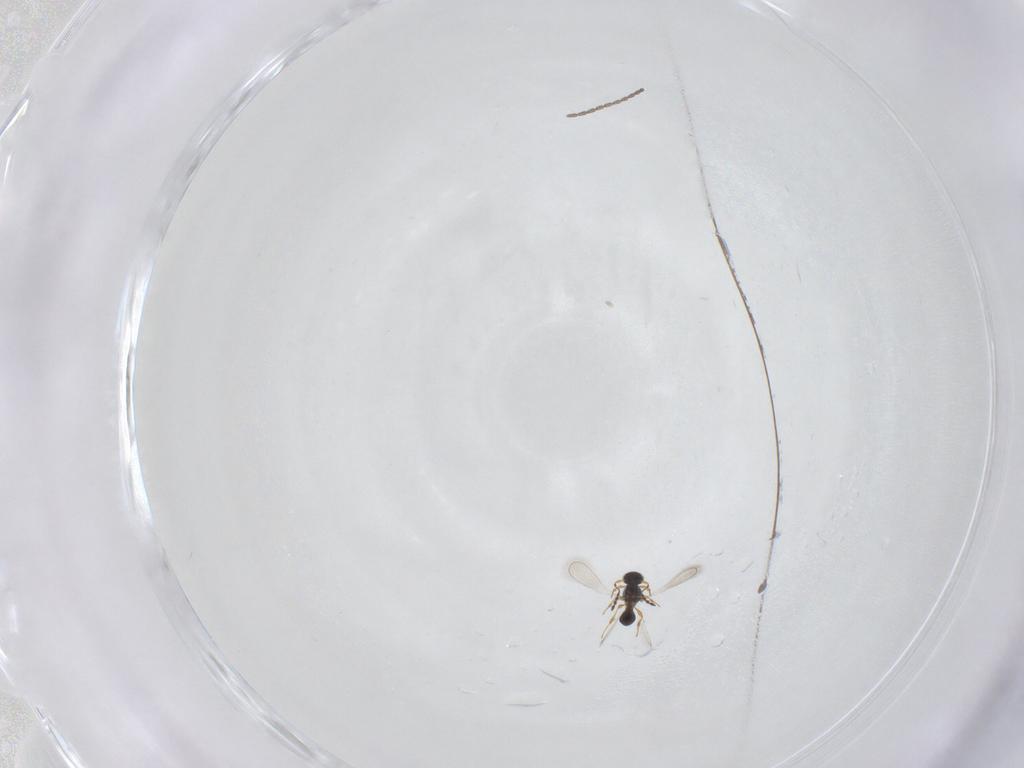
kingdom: Animalia
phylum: Arthropoda
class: Insecta
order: Diptera
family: Cecidomyiidae
